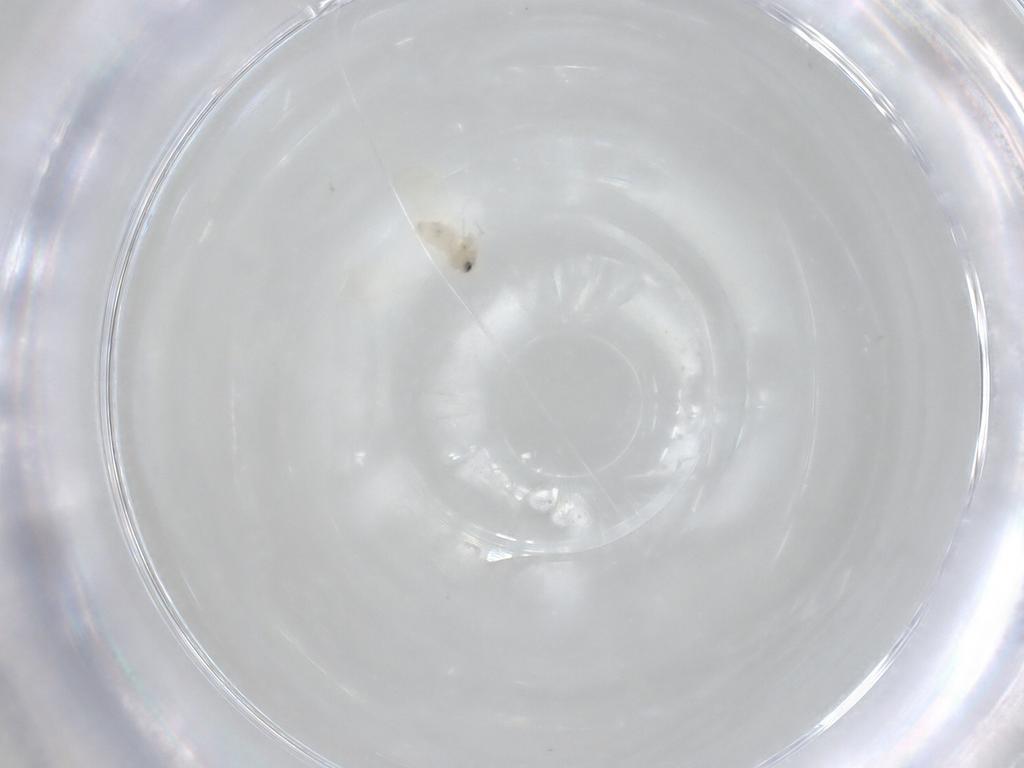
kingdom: Animalia
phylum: Arthropoda
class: Insecta
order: Hemiptera
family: Aleyrodidae
